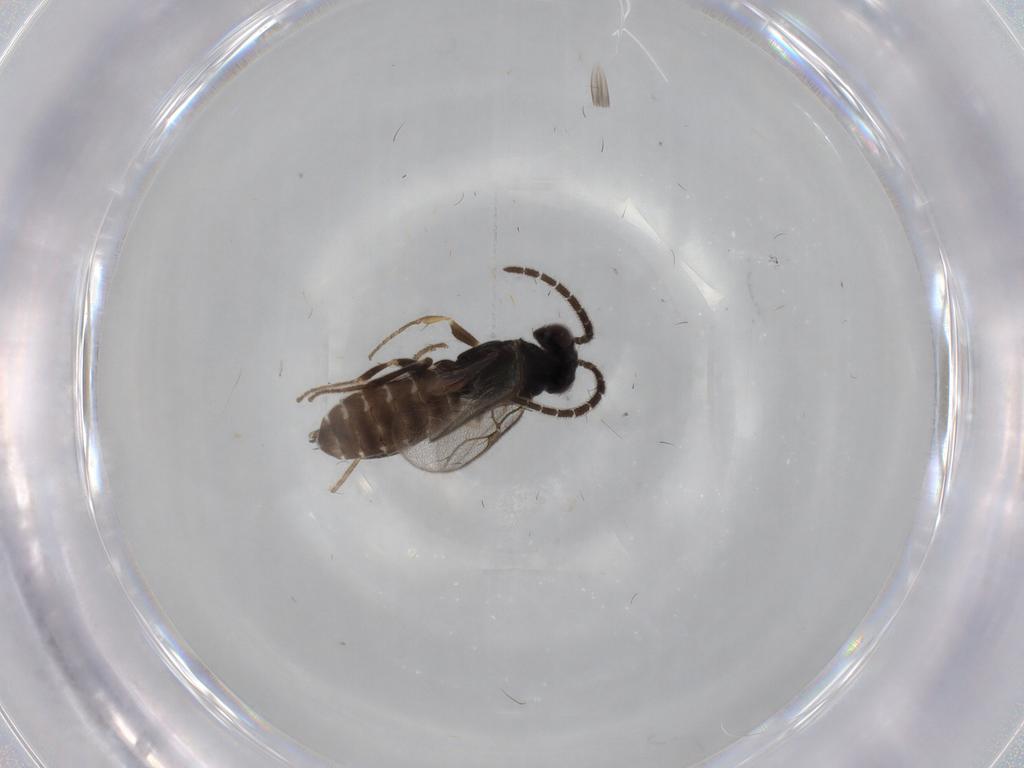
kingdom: Animalia
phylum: Arthropoda
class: Insecta
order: Hymenoptera
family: Dryinidae
